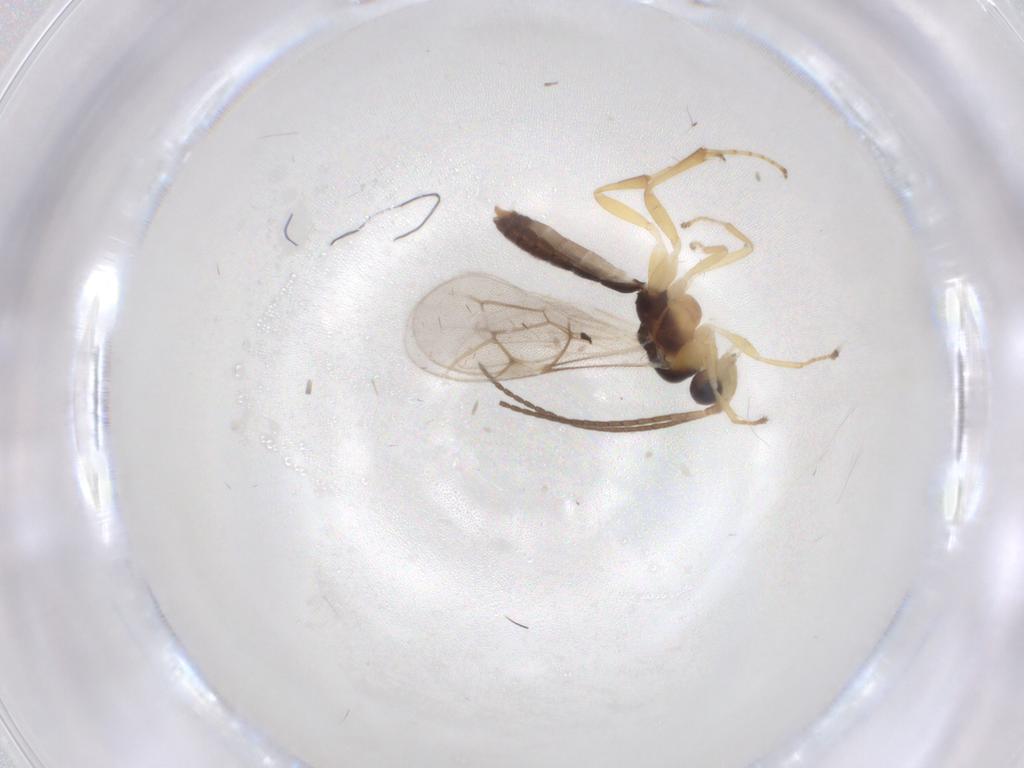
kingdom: Animalia
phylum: Arthropoda
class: Insecta
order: Hymenoptera
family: Ichneumonidae
